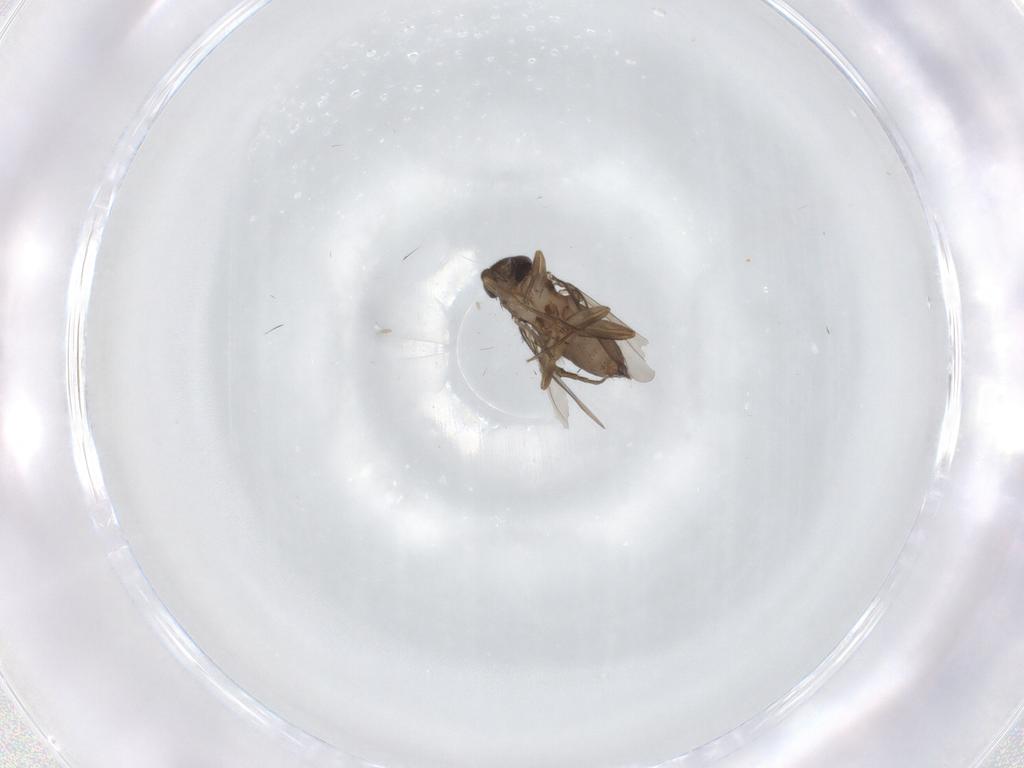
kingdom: Animalia
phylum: Arthropoda
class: Insecta
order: Diptera
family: Phoridae
